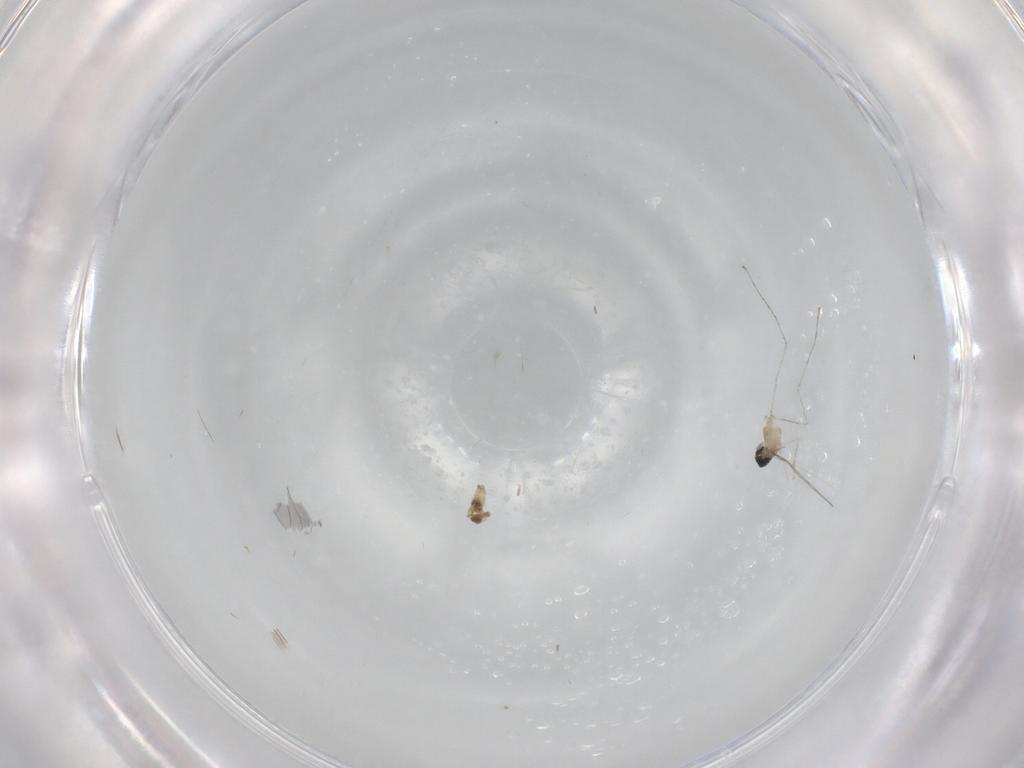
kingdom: Animalia
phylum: Arthropoda
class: Insecta
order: Diptera
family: Cecidomyiidae
